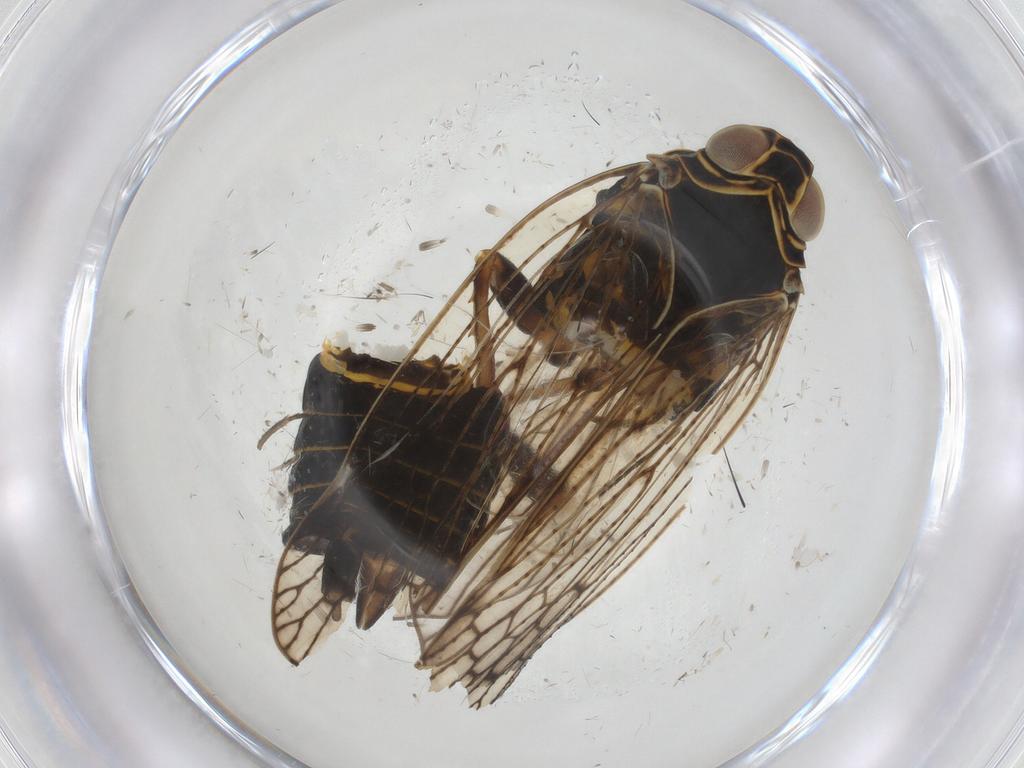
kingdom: Animalia
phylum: Arthropoda
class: Insecta
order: Hemiptera
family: Cixiidae
